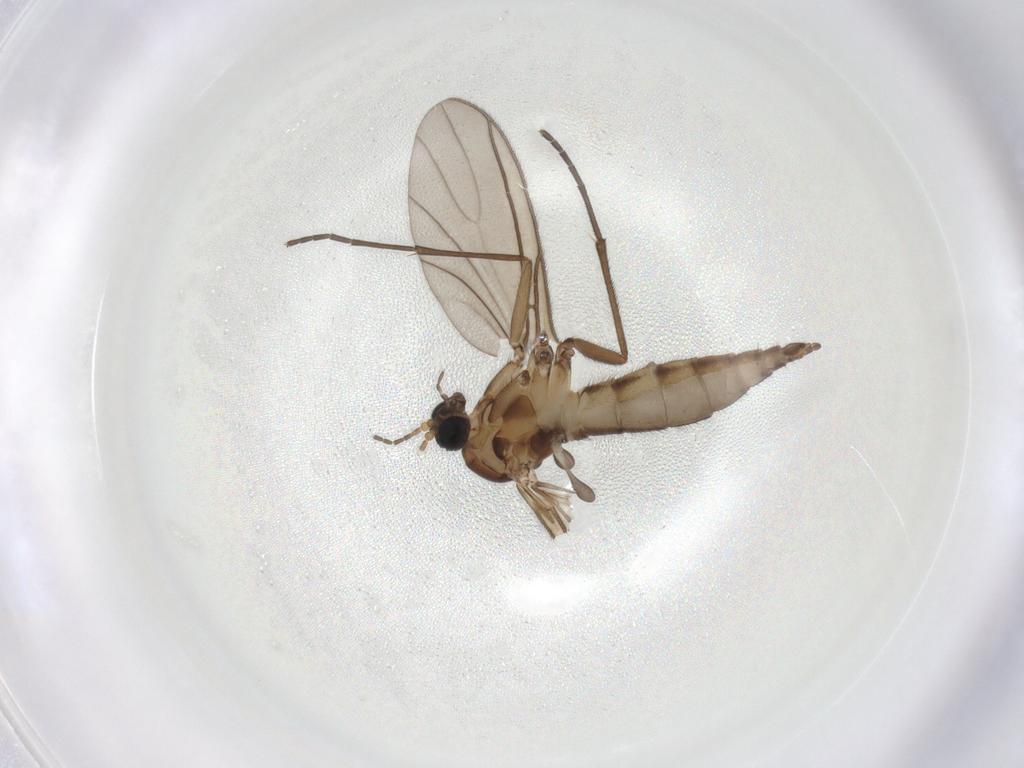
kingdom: Animalia
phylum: Arthropoda
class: Insecta
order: Diptera
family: Sciaridae
